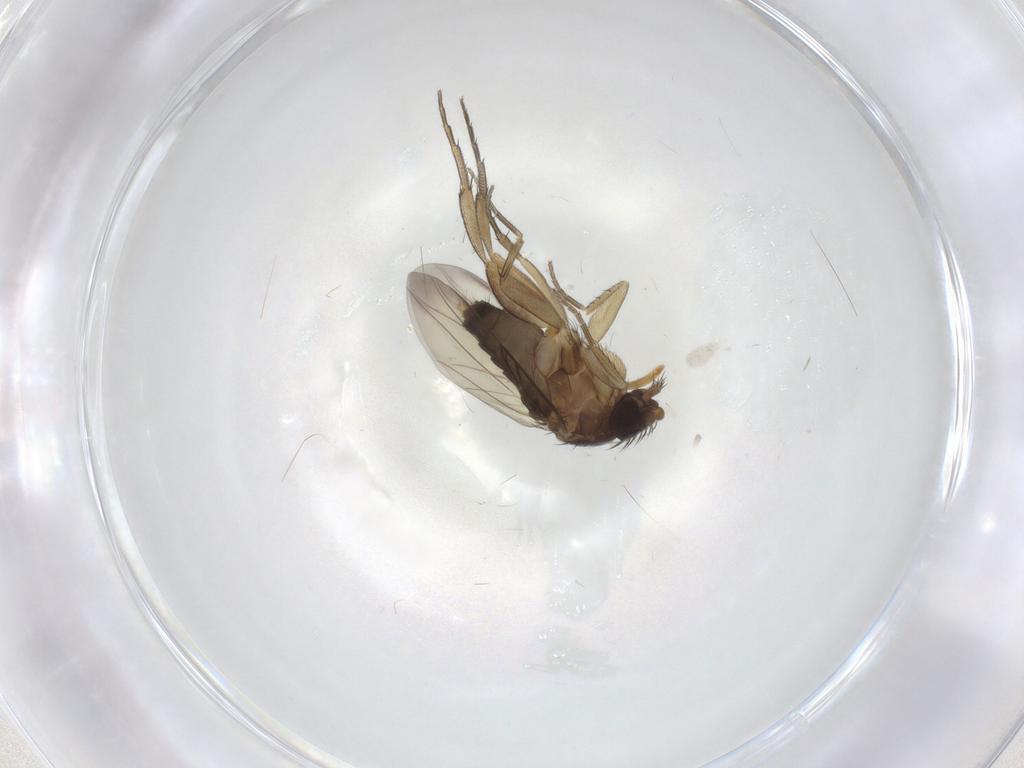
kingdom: Animalia
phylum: Arthropoda
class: Insecta
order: Diptera
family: Phoridae
